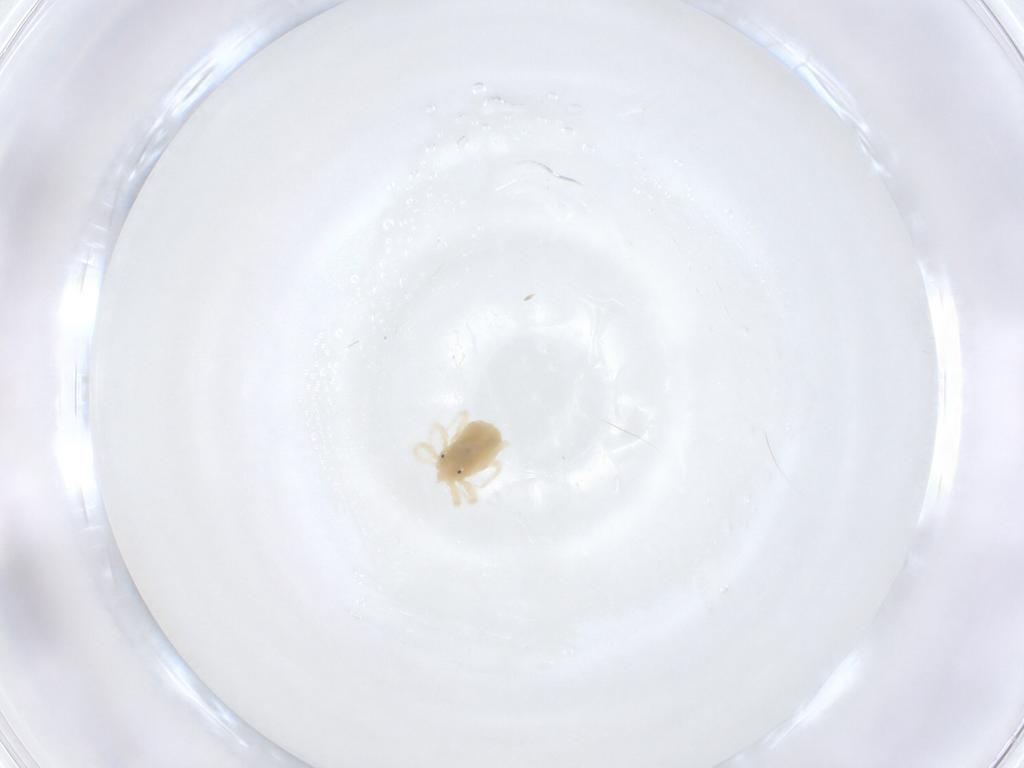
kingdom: Animalia
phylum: Arthropoda
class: Arachnida
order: Trombidiformes
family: Anystidae
